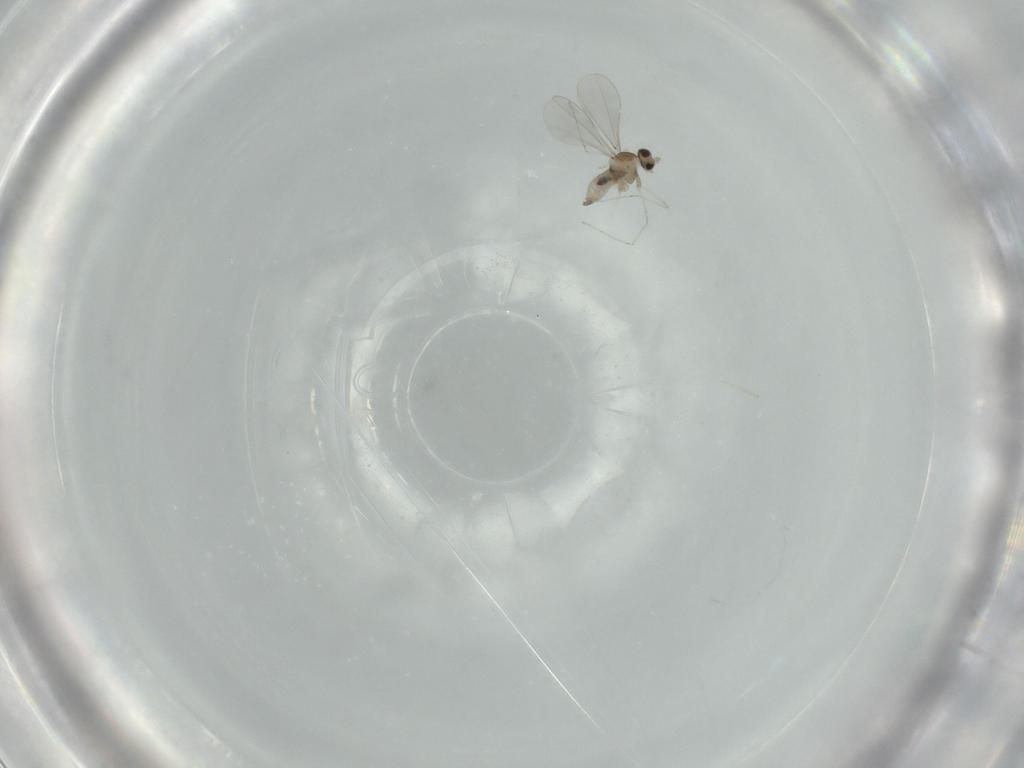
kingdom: Animalia
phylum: Arthropoda
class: Insecta
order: Diptera
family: Cecidomyiidae
